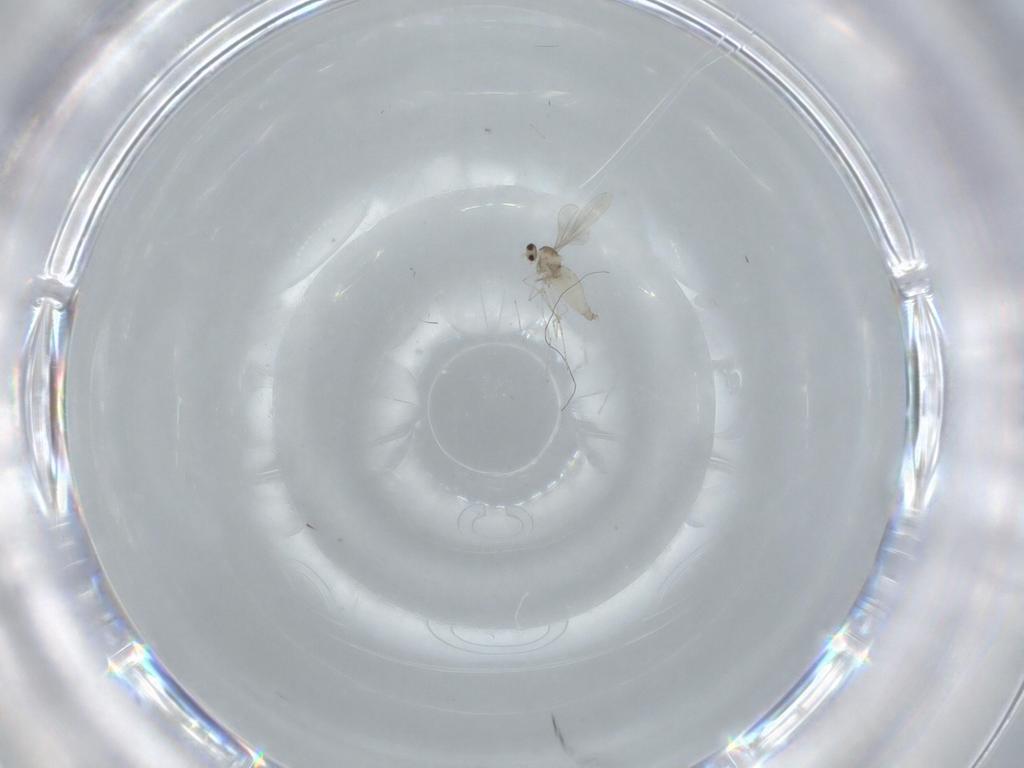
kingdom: Animalia
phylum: Arthropoda
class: Insecta
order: Diptera
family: Cecidomyiidae
